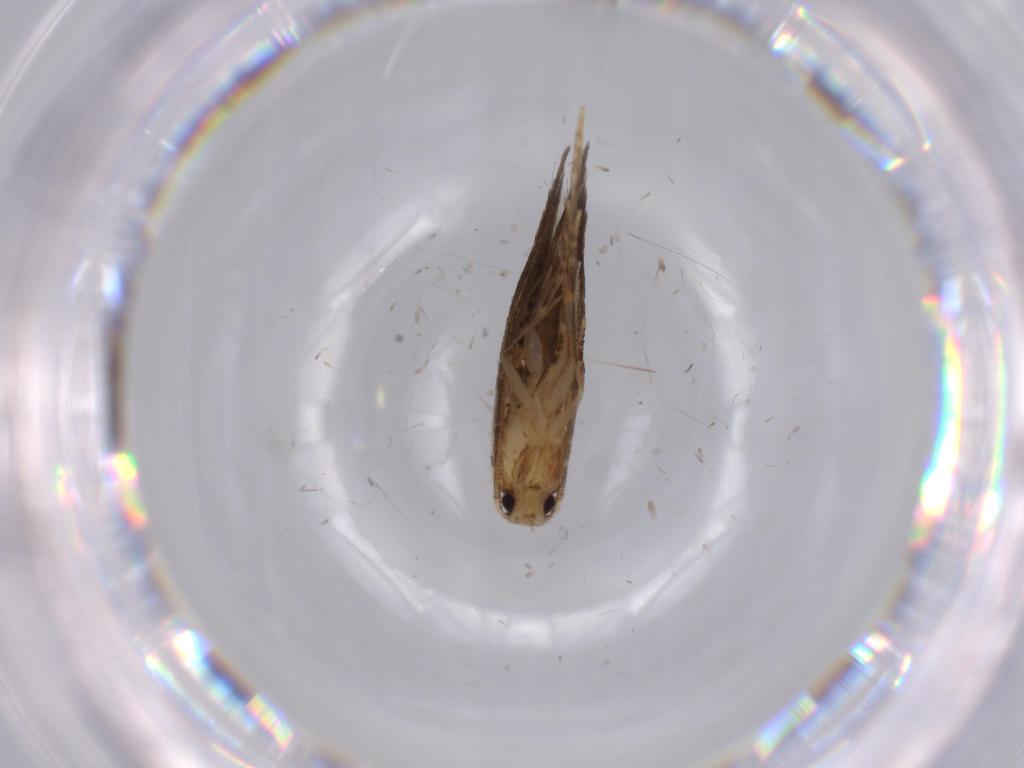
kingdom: Animalia
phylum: Arthropoda
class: Insecta
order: Lepidoptera
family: Tineidae
